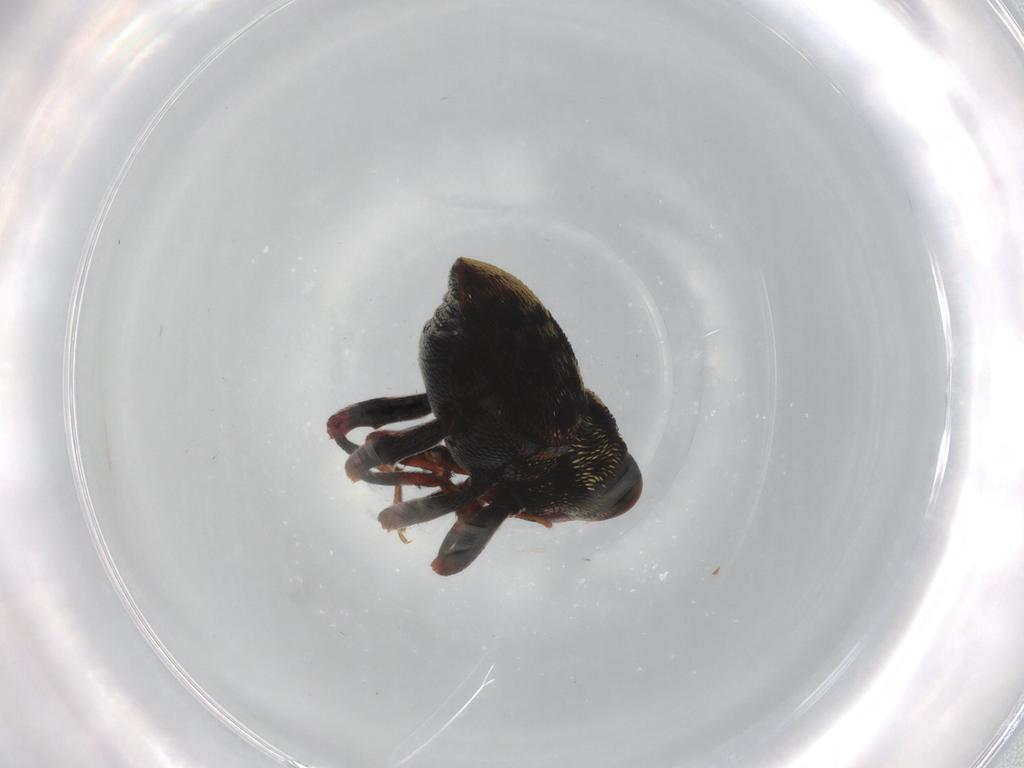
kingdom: Animalia
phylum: Arthropoda
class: Insecta
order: Coleoptera
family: Curculionidae
